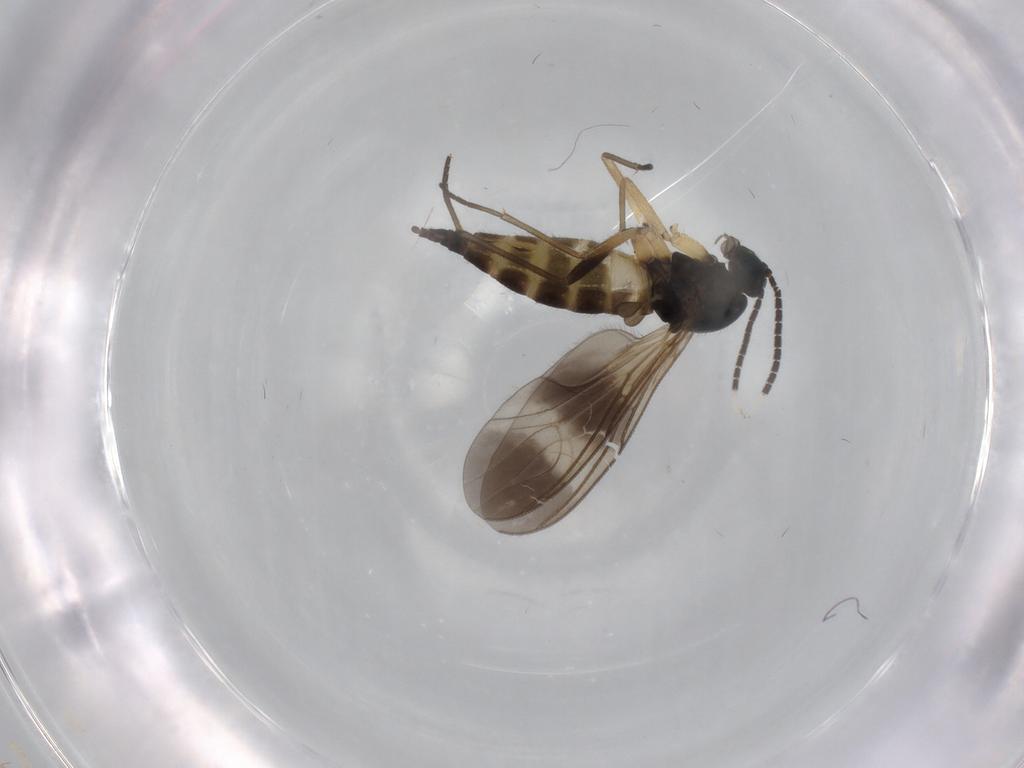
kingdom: Animalia
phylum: Arthropoda
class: Insecta
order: Diptera
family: Sciaridae
